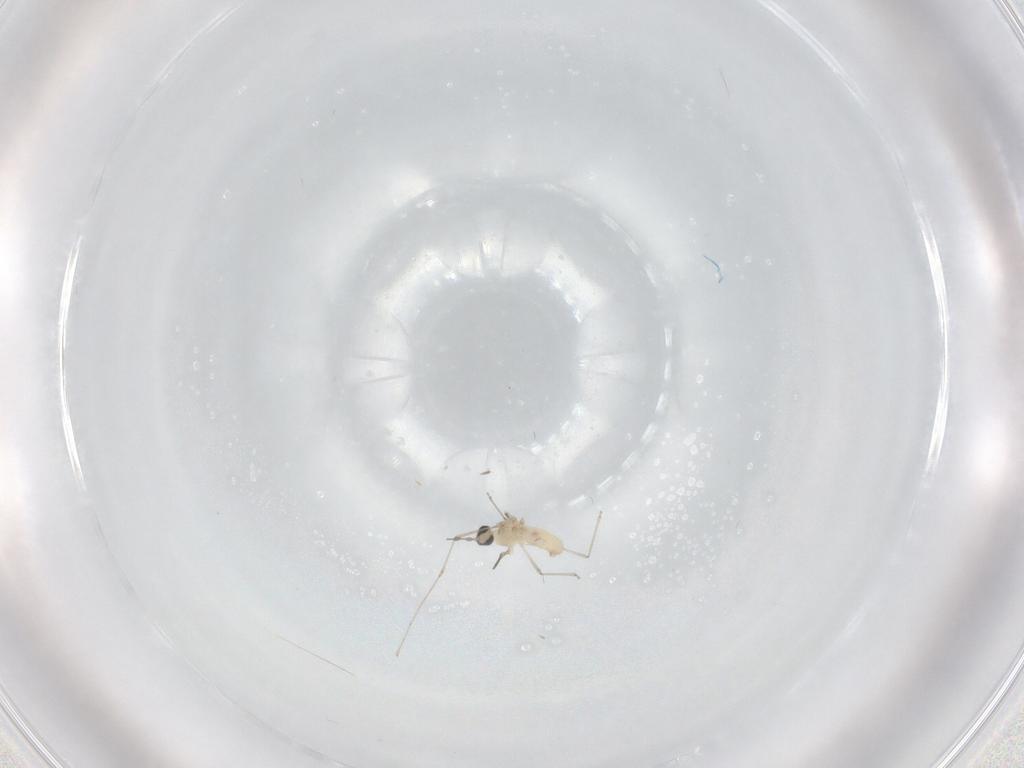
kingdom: Animalia
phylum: Arthropoda
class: Insecta
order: Diptera
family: Cecidomyiidae
